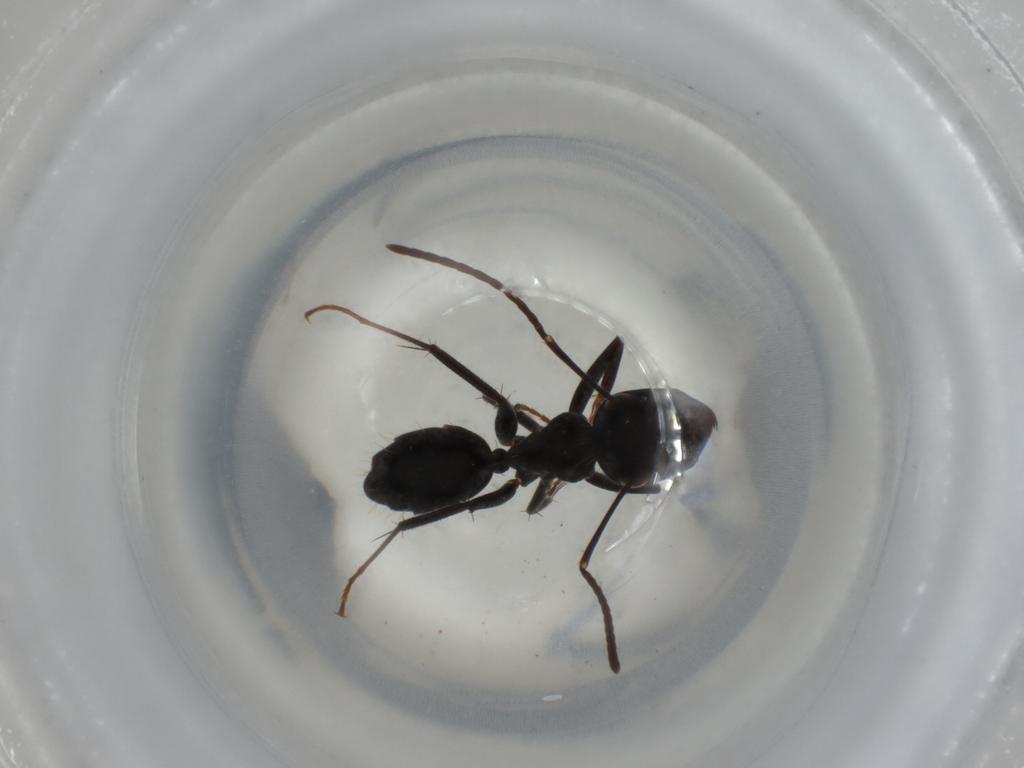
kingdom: Animalia
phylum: Arthropoda
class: Insecta
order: Hymenoptera
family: Formicidae
